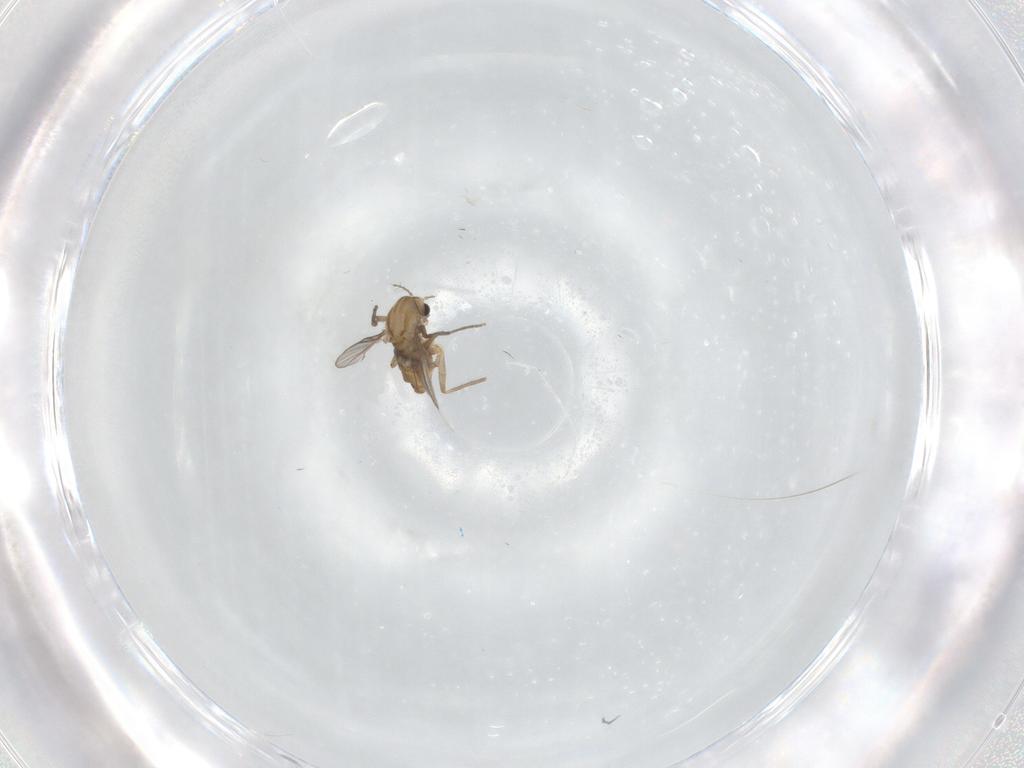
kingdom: Animalia
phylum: Arthropoda
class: Insecta
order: Diptera
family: Chironomidae
